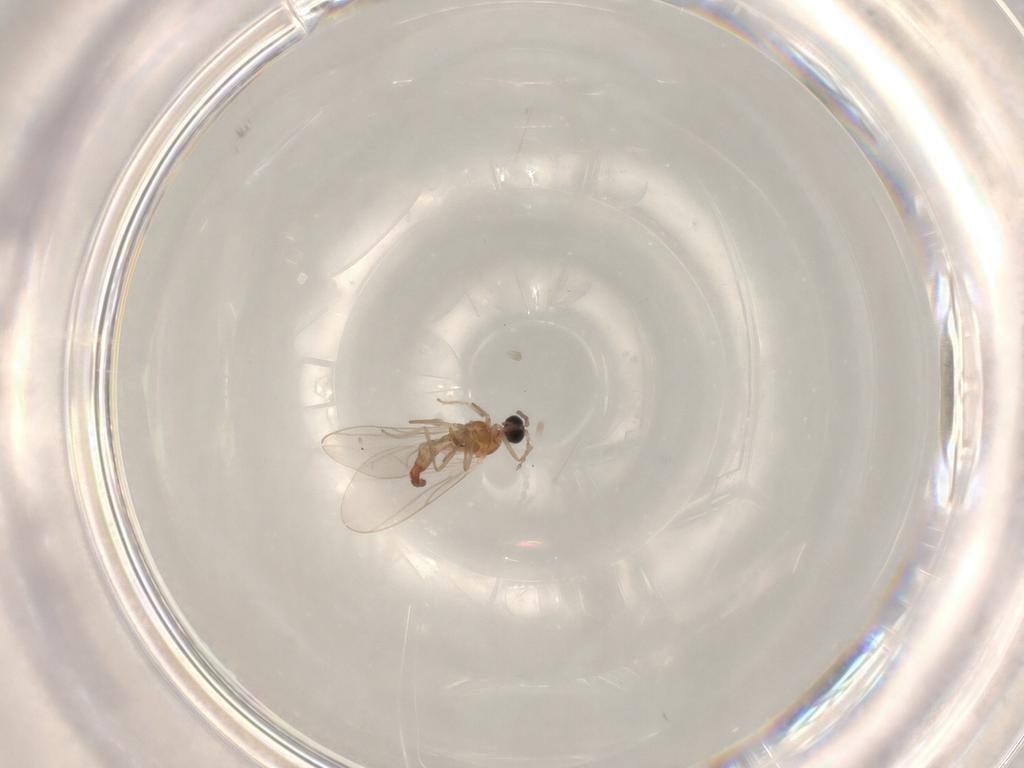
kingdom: Animalia
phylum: Arthropoda
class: Insecta
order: Diptera
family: Cecidomyiidae
